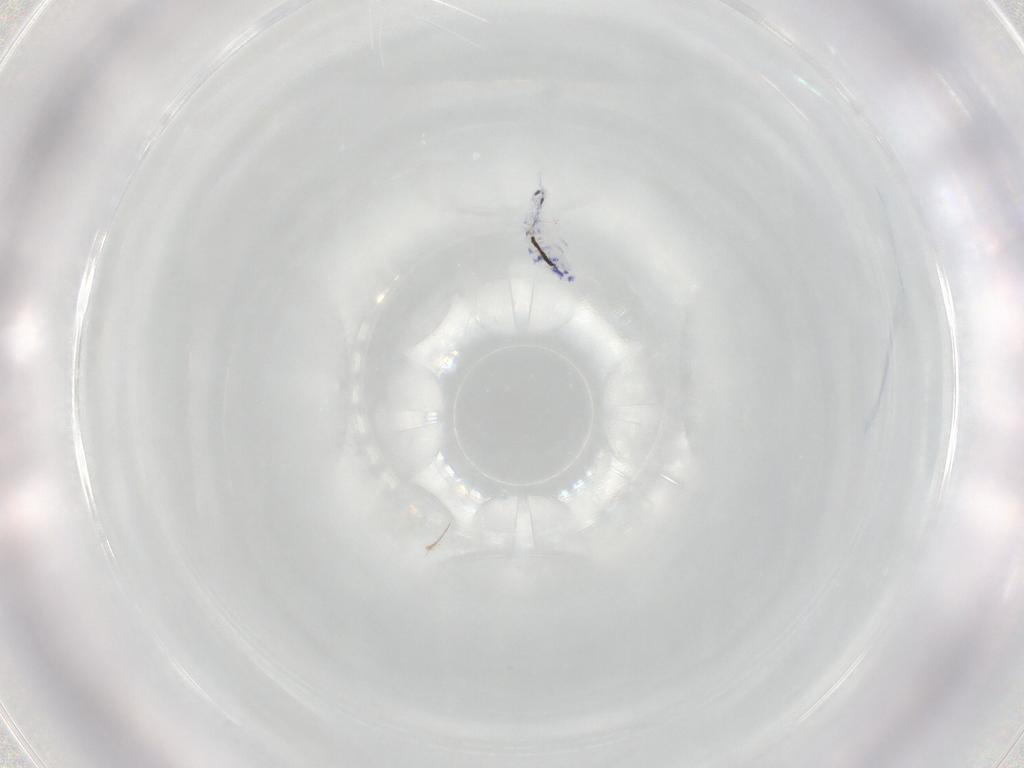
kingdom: Animalia
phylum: Arthropoda
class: Collembola
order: Entomobryomorpha
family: Entomobryidae
